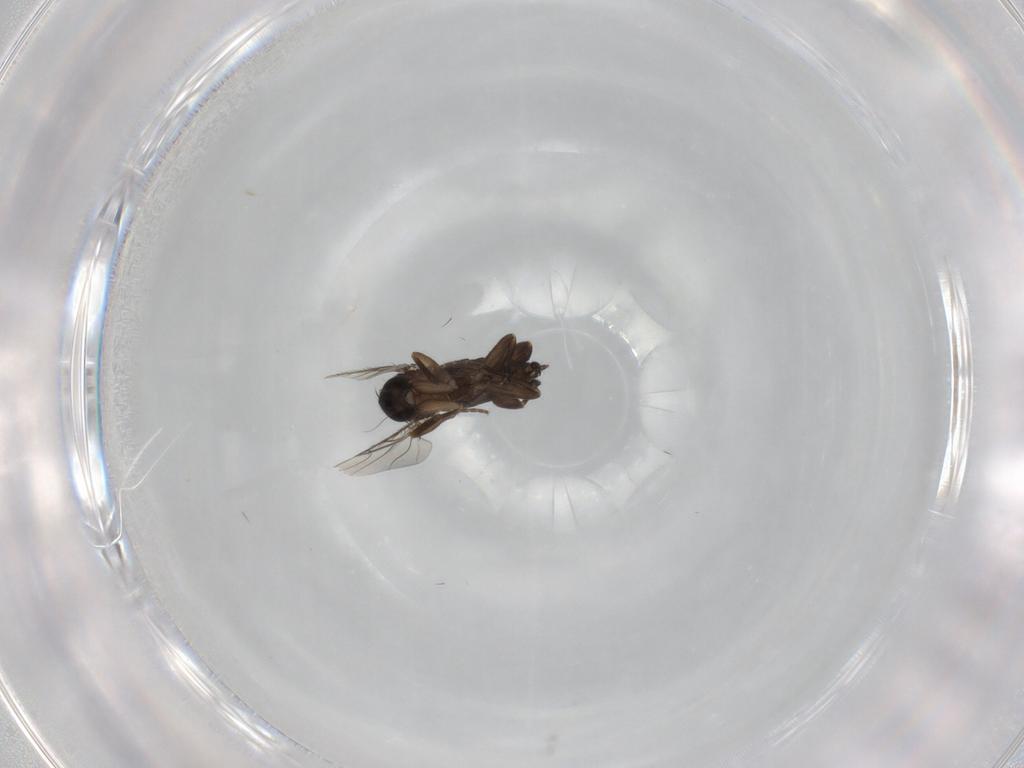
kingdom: Animalia
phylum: Arthropoda
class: Insecta
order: Diptera
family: Phoridae
